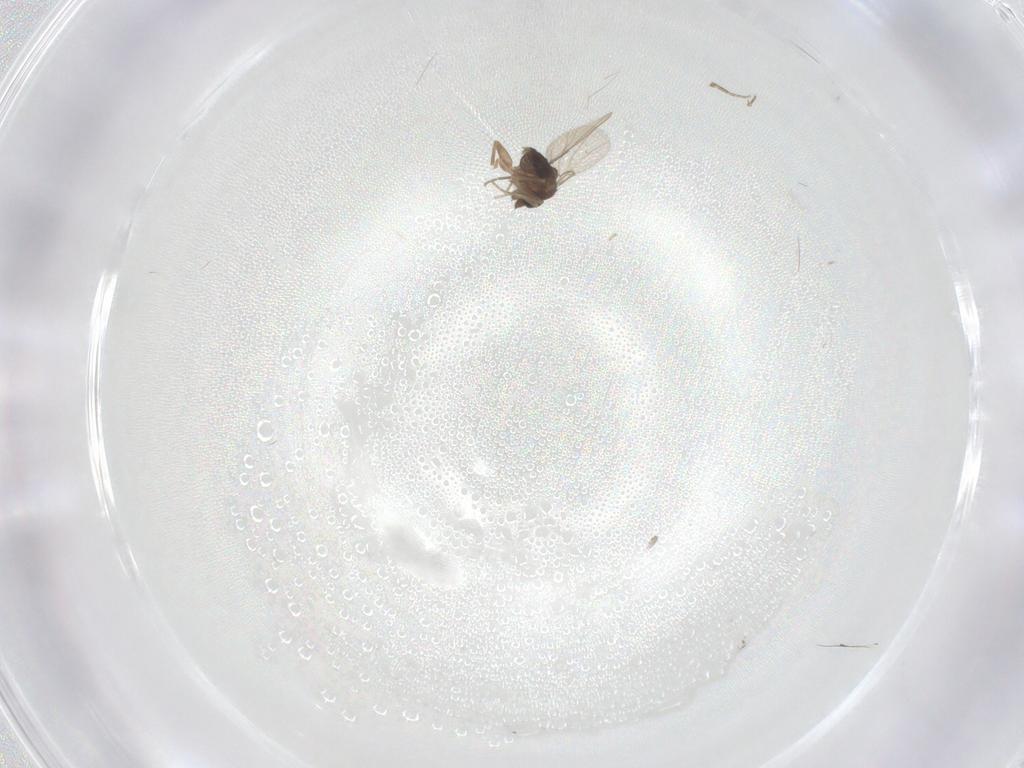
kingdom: Animalia
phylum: Arthropoda
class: Insecta
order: Diptera
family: Phoridae
